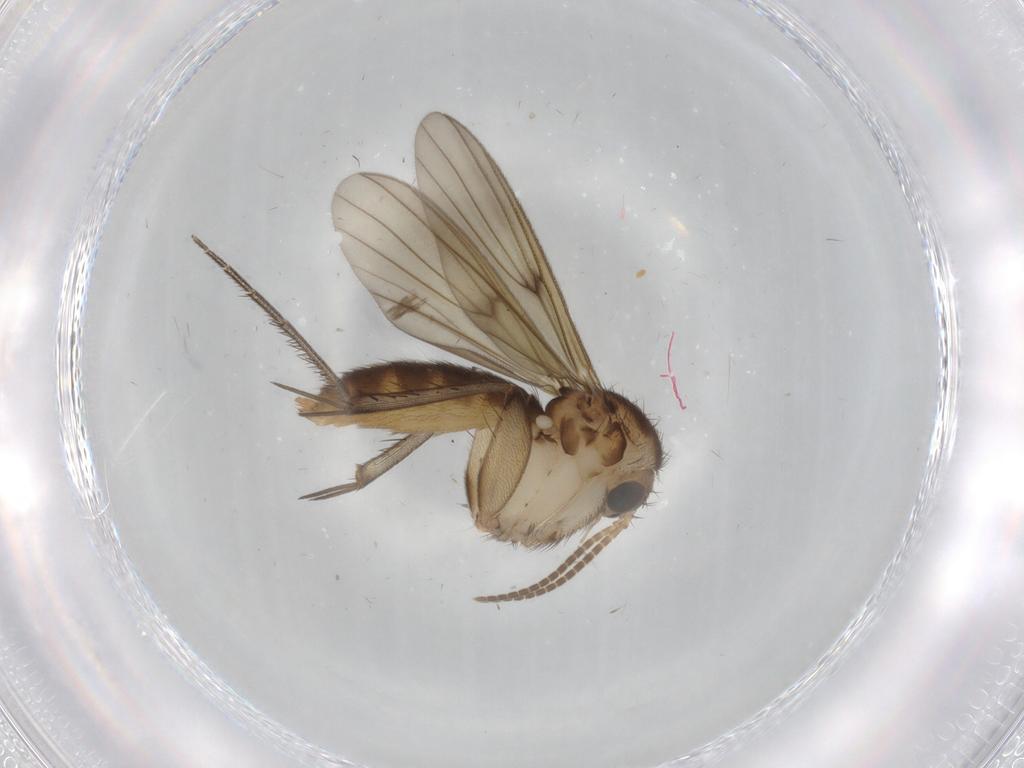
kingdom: Animalia
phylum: Arthropoda
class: Insecta
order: Diptera
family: Mycetophilidae
